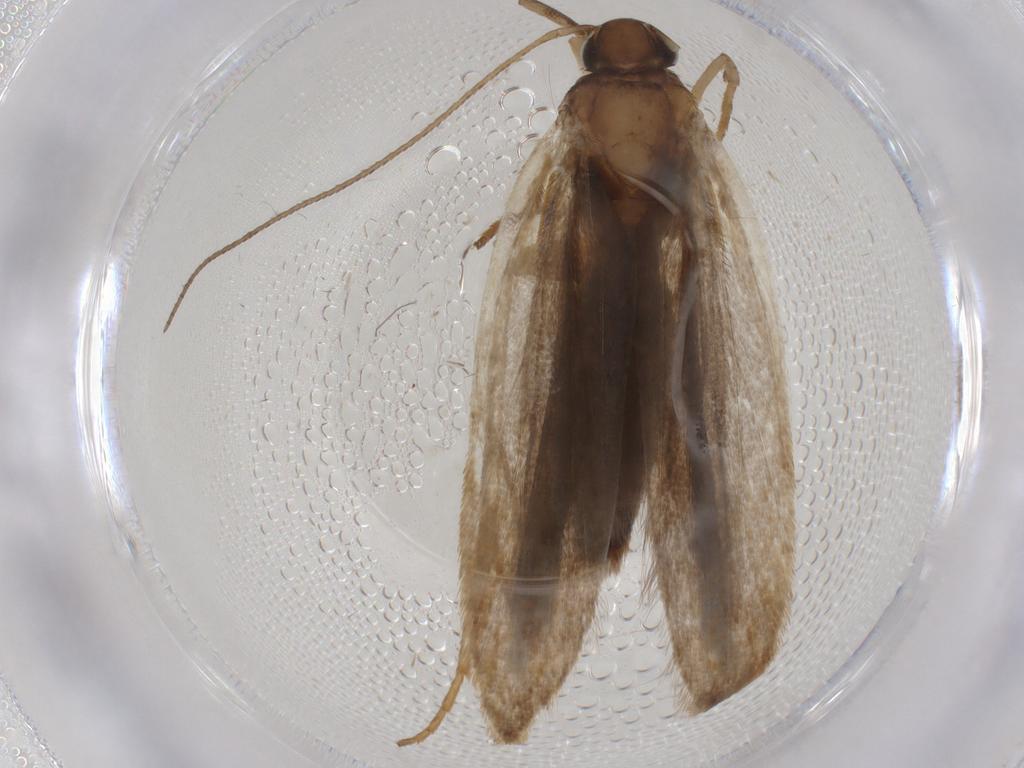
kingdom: Animalia
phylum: Arthropoda
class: Insecta
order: Lepidoptera
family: Gelechiidae
